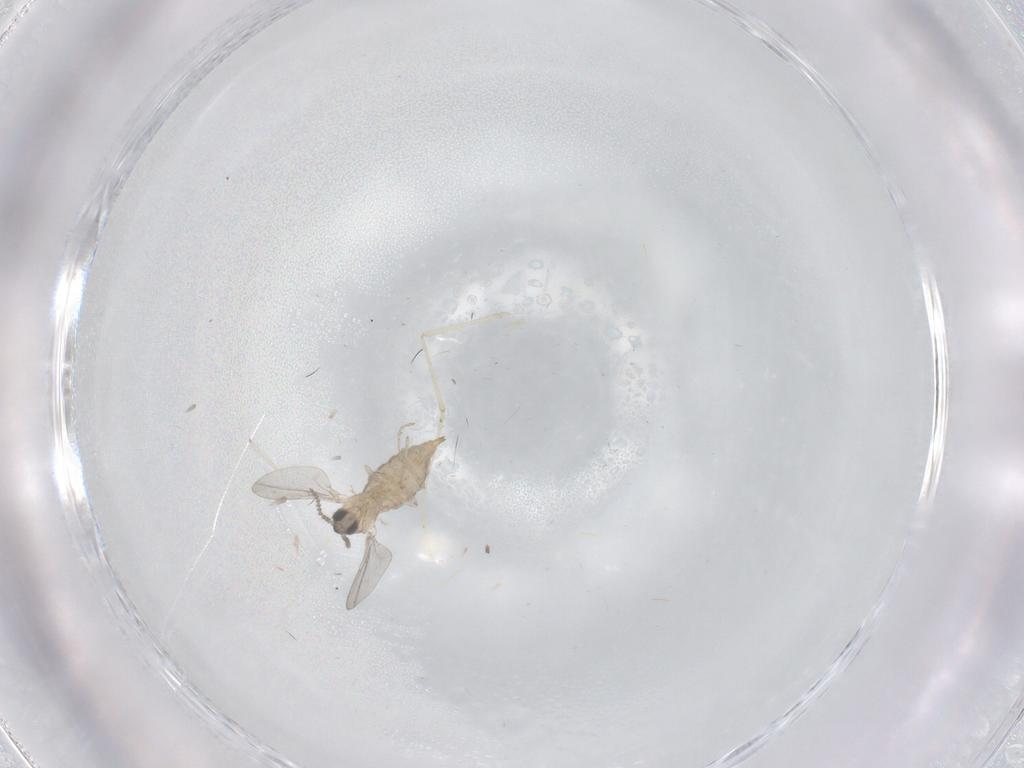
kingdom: Animalia
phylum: Arthropoda
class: Insecta
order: Diptera
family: Cecidomyiidae
